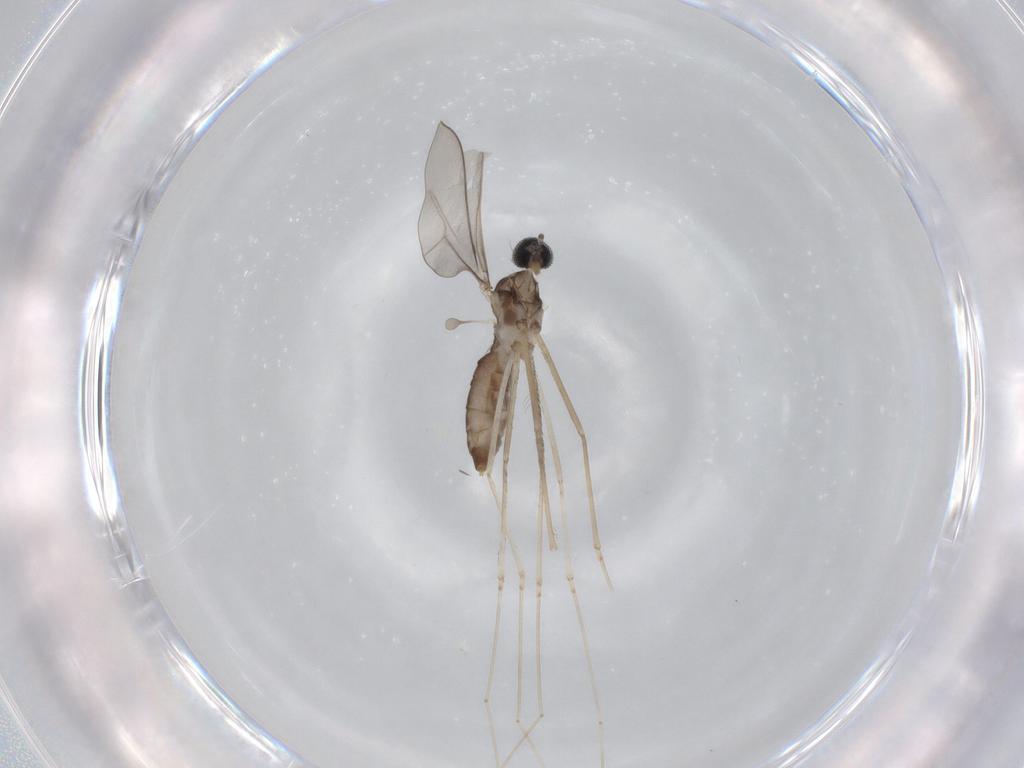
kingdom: Animalia
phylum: Arthropoda
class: Insecta
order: Diptera
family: Cecidomyiidae
